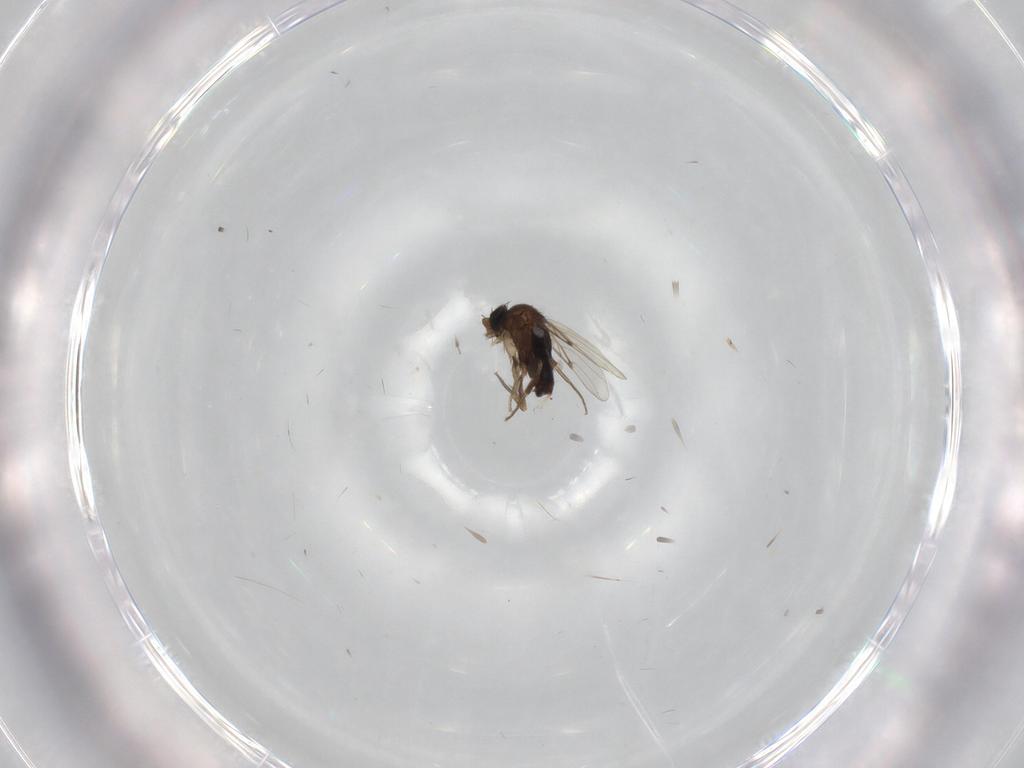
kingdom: Animalia
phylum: Arthropoda
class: Insecta
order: Diptera
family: Phoridae
